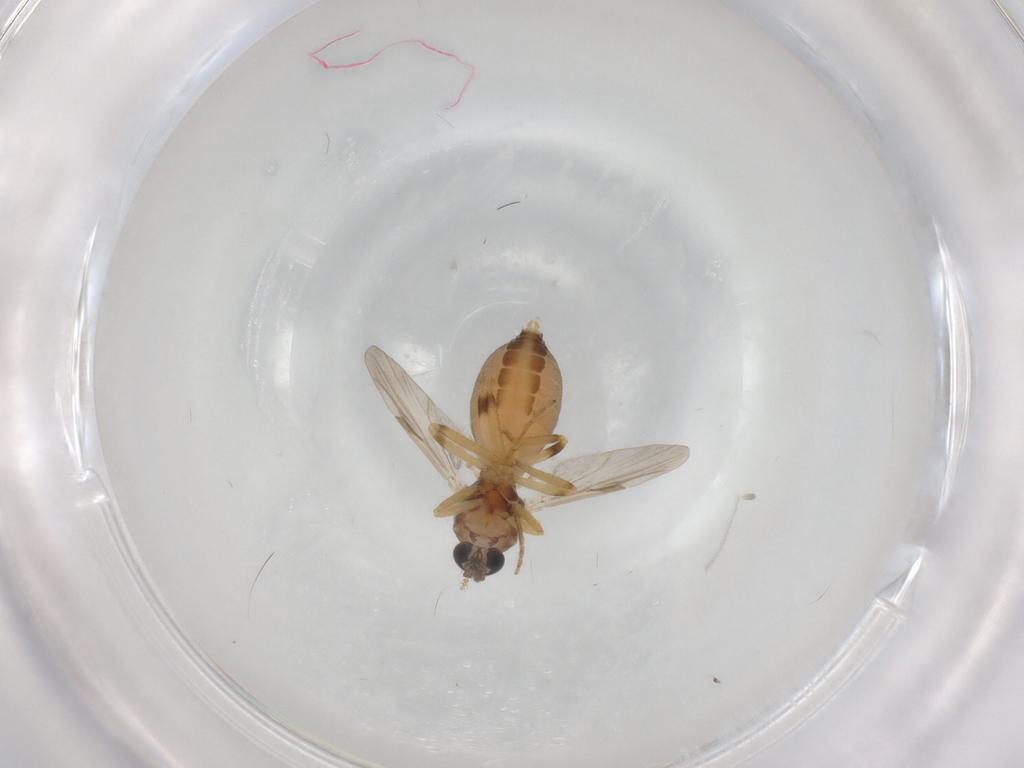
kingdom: Animalia
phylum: Arthropoda
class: Insecta
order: Diptera
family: Ceratopogonidae
